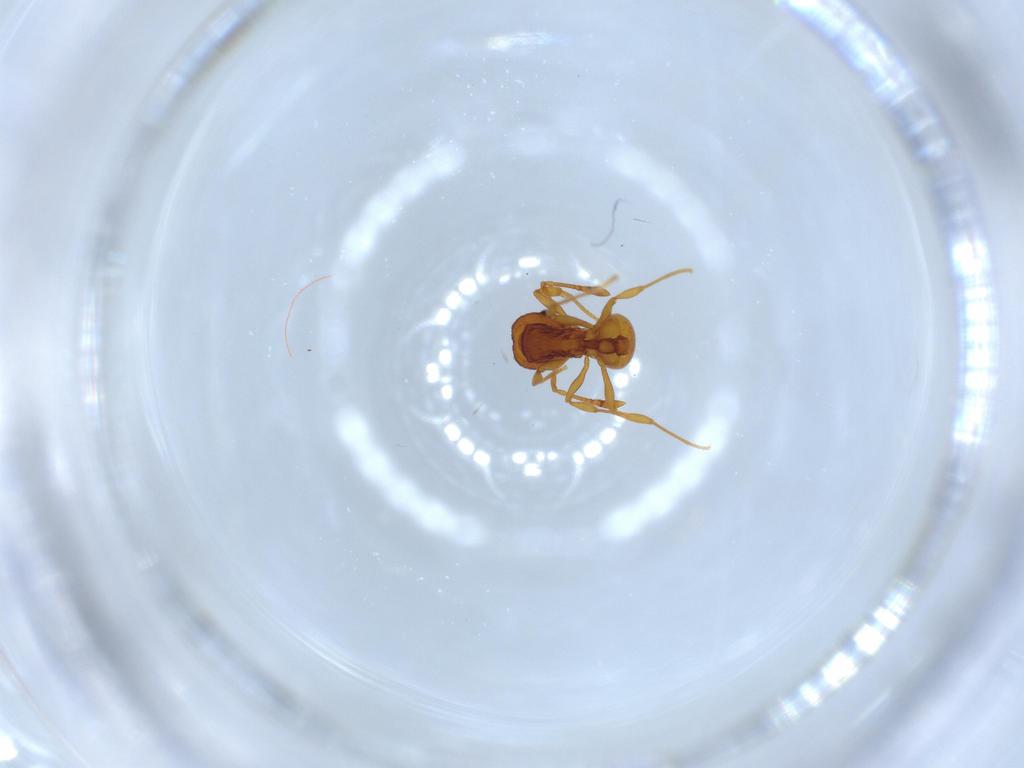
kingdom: Animalia
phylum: Arthropoda
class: Insecta
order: Hymenoptera
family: Formicidae
